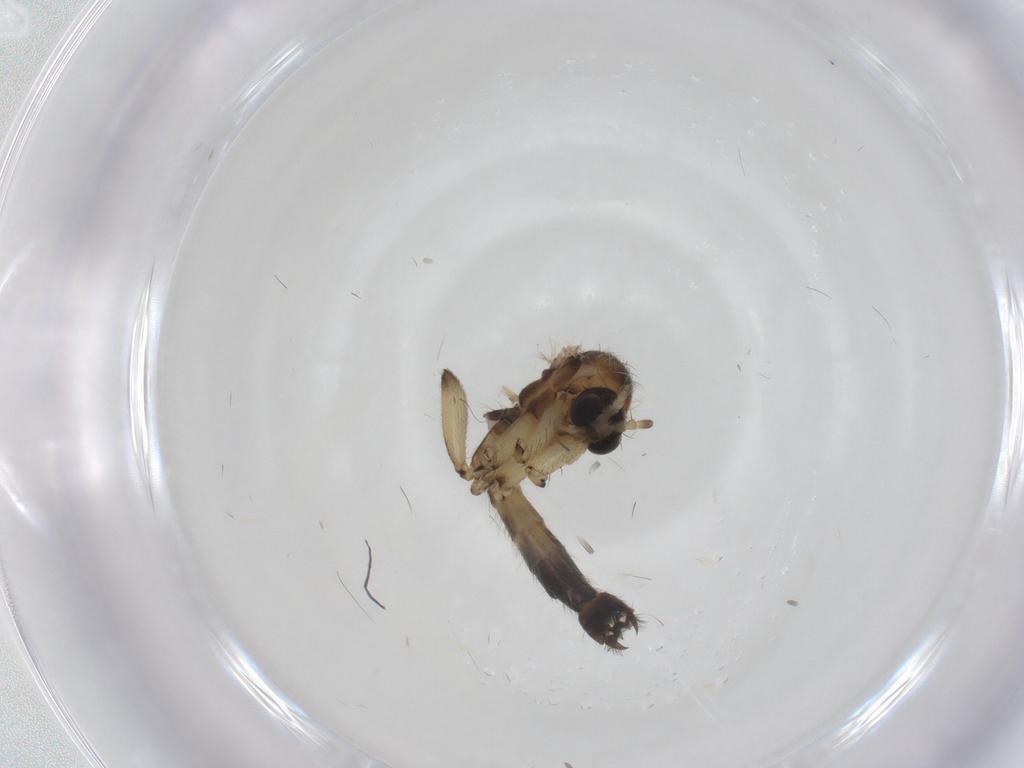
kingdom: Animalia
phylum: Arthropoda
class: Insecta
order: Diptera
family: Mycetophilidae
